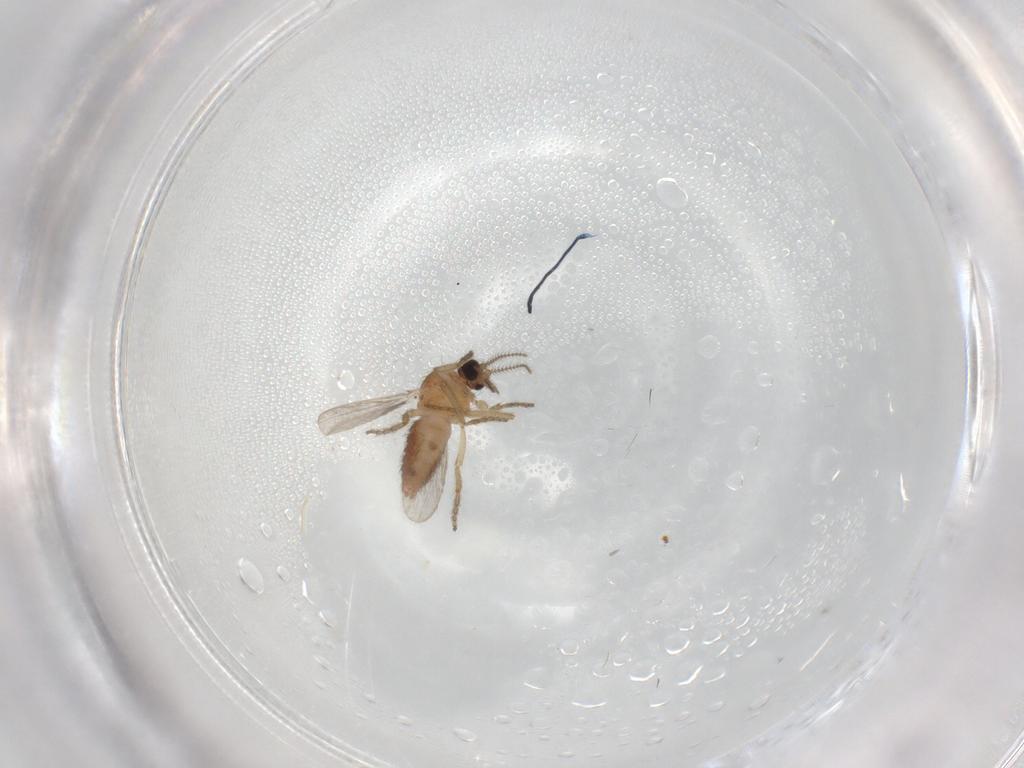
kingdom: Animalia
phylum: Arthropoda
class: Insecta
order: Diptera
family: Ceratopogonidae
